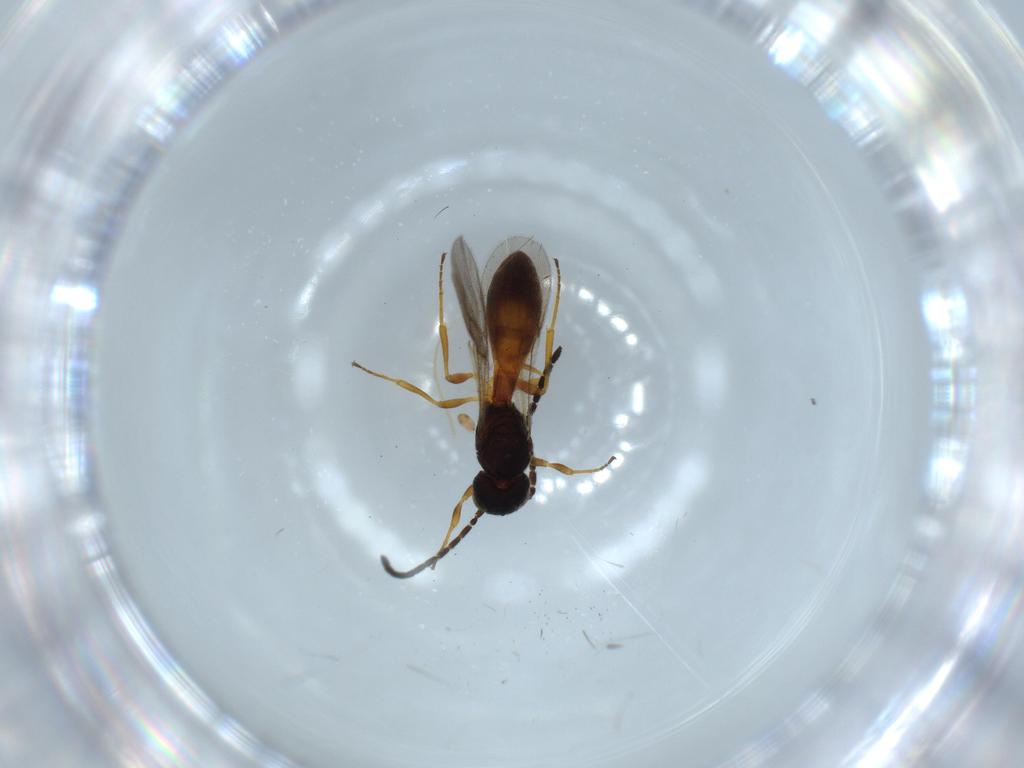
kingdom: Animalia
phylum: Arthropoda
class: Insecta
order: Hymenoptera
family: Scelionidae
